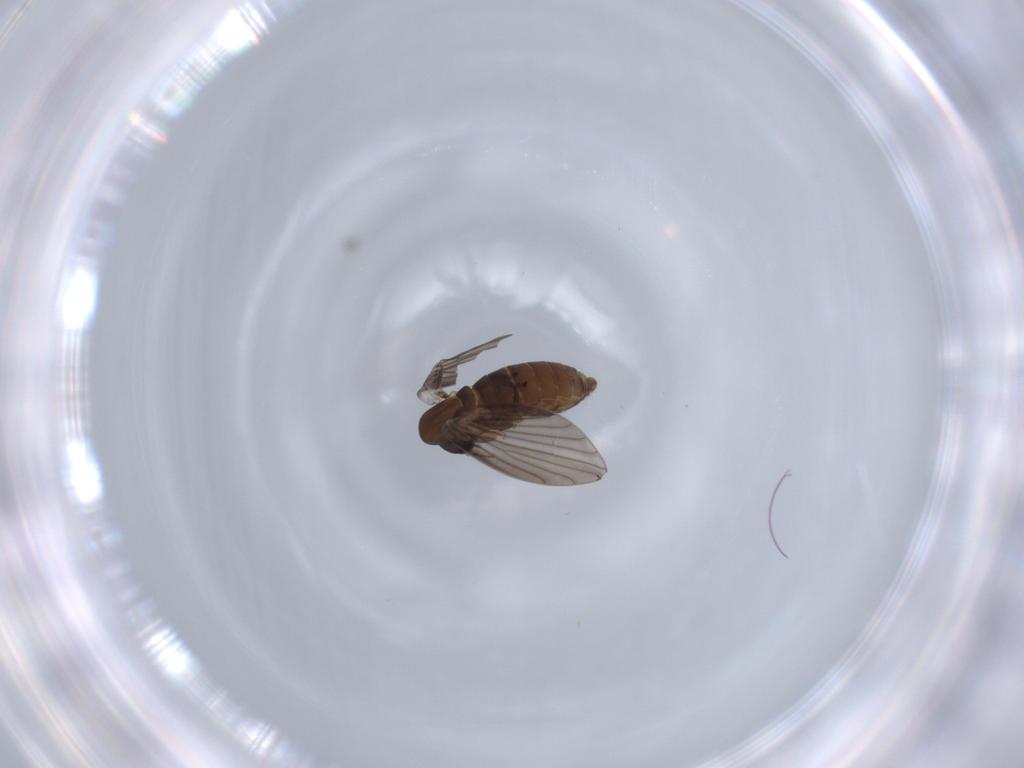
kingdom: Animalia
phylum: Arthropoda
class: Insecta
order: Diptera
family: Psychodidae
